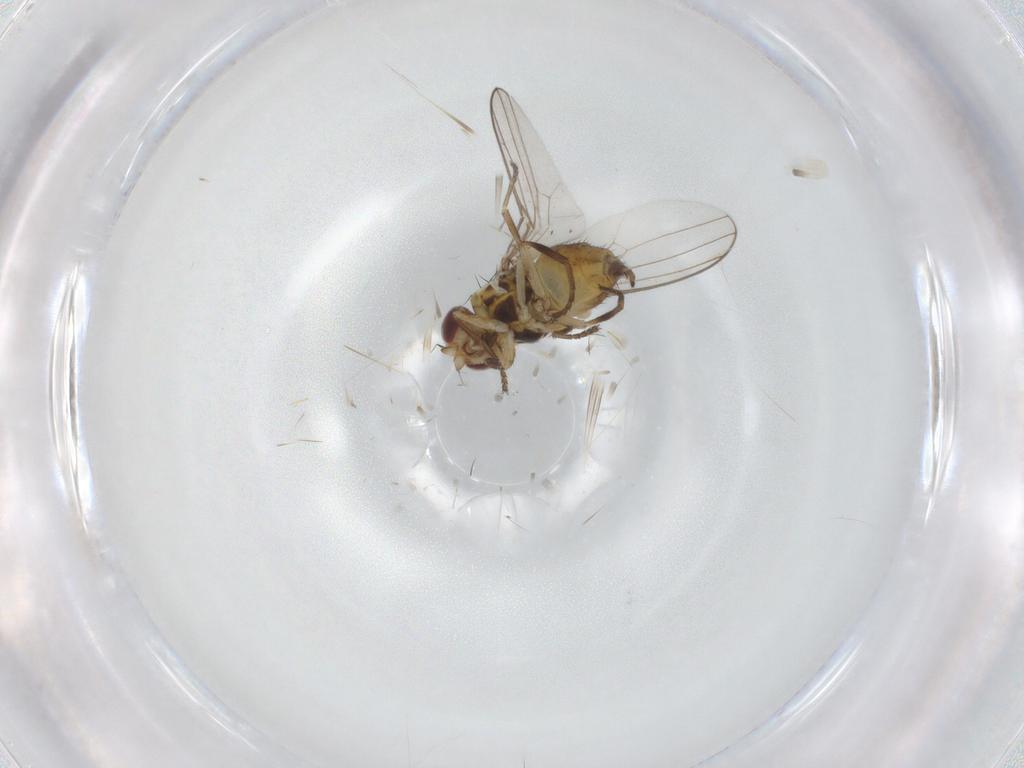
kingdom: Animalia
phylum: Arthropoda
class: Insecta
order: Diptera
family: Chloropidae
